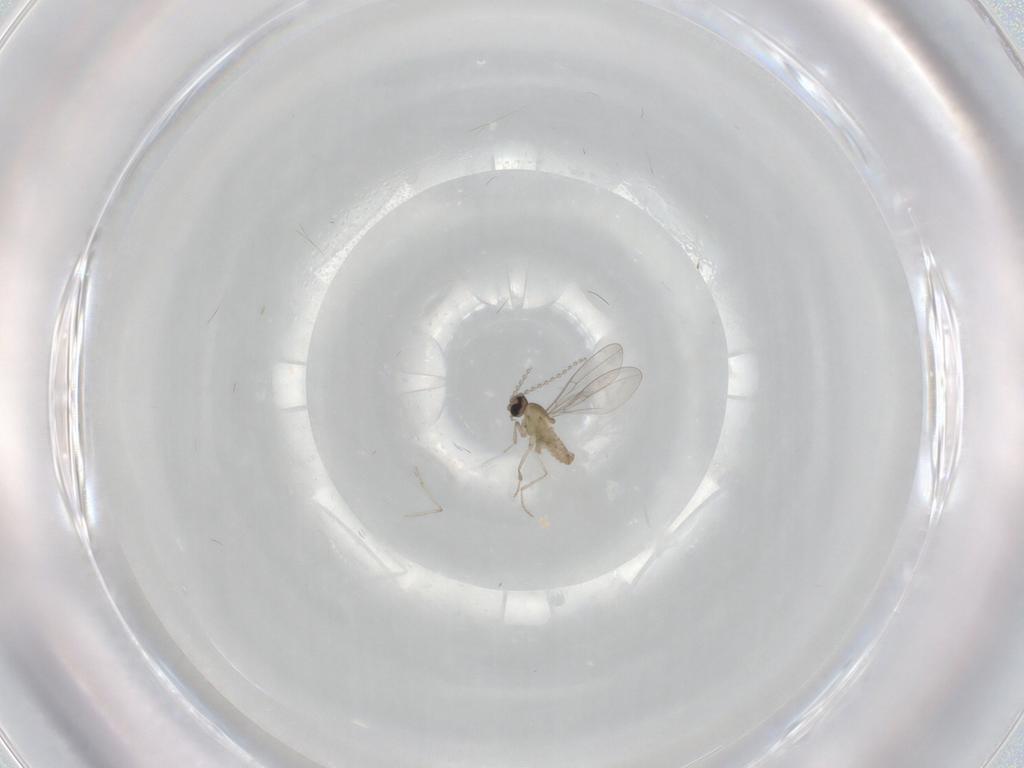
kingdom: Animalia
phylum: Arthropoda
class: Insecta
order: Diptera
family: Cecidomyiidae
